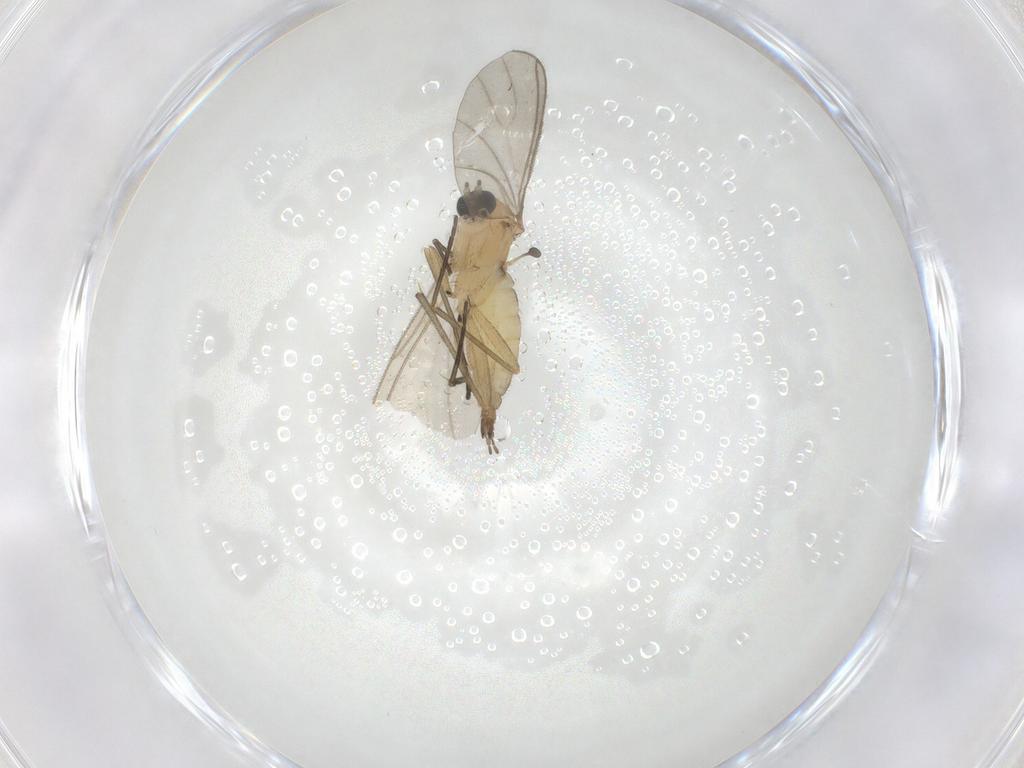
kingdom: Animalia
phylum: Arthropoda
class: Insecta
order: Diptera
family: Sciaridae
